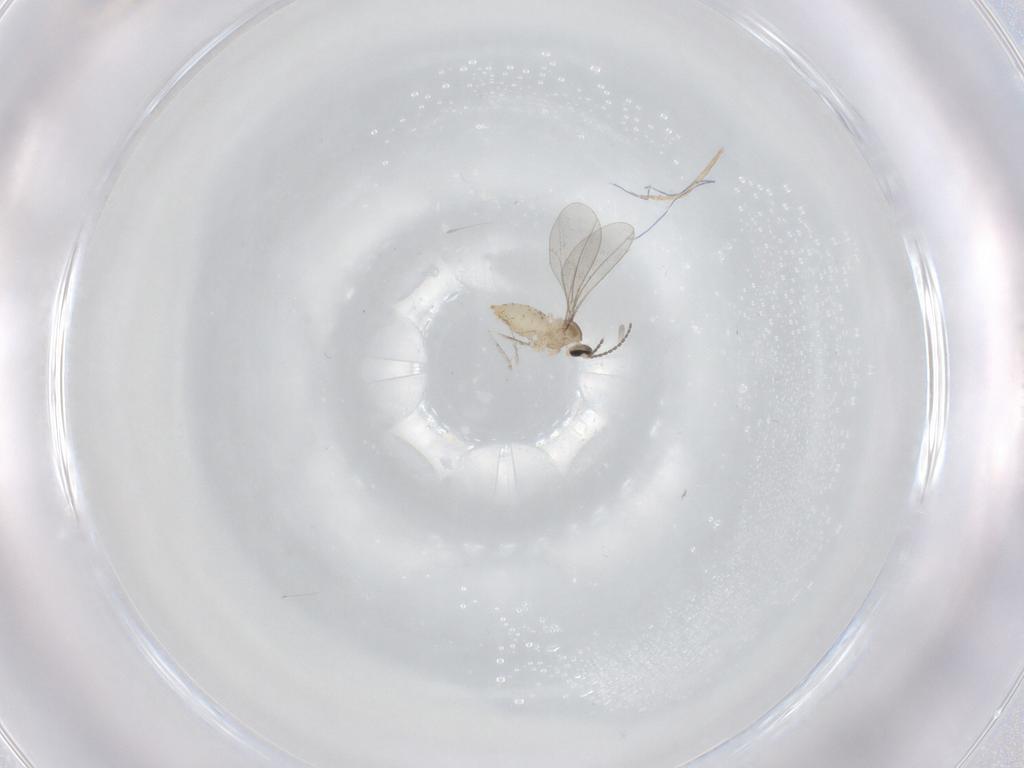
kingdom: Animalia
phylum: Arthropoda
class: Insecta
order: Diptera
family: Cecidomyiidae
